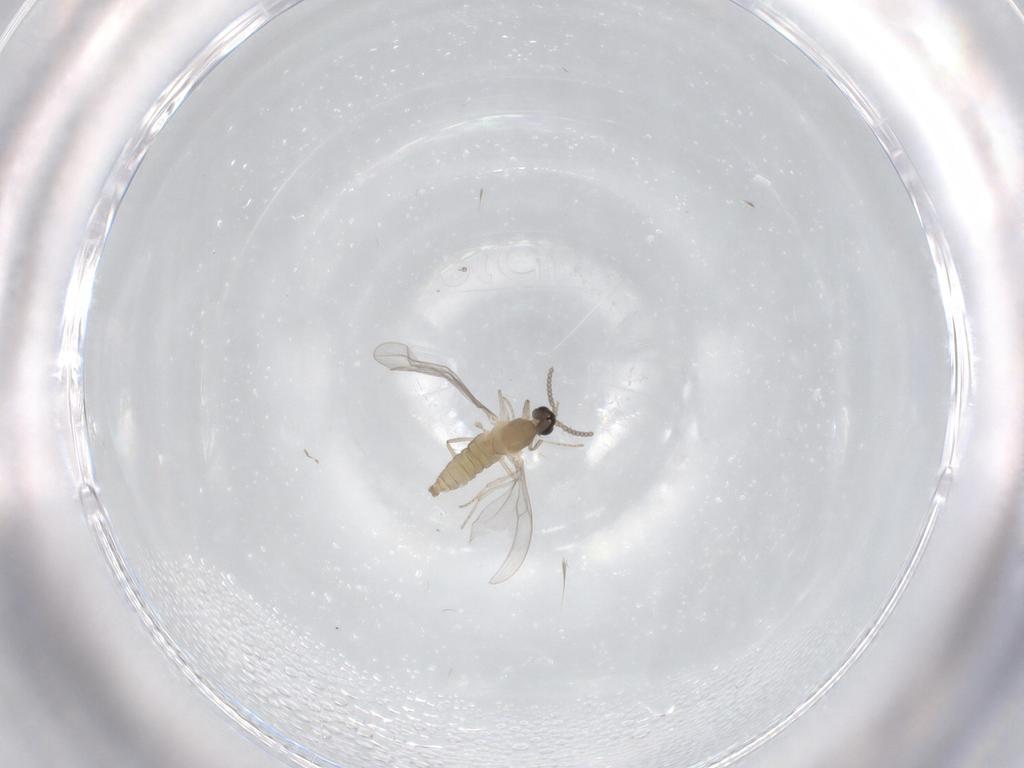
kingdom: Animalia
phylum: Arthropoda
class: Insecta
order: Diptera
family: Cecidomyiidae
